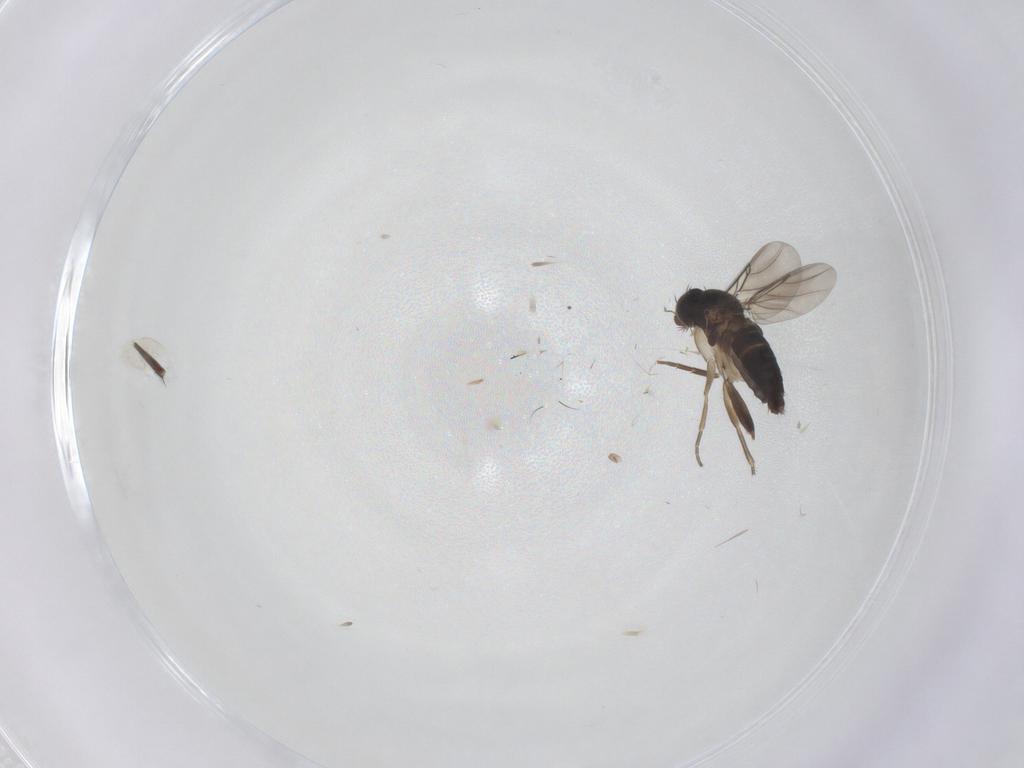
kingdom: Animalia
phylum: Arthropoda
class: Insecta
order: Diptera
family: Phoridae
